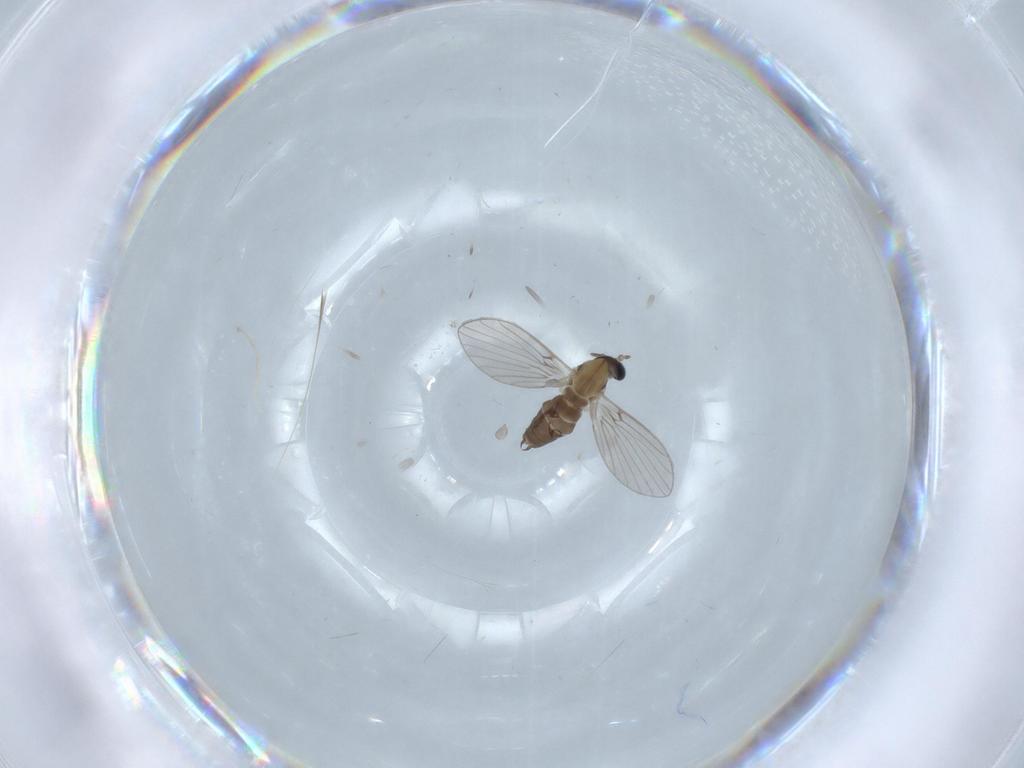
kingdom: Animalia
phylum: Arthropoda
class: Insecta
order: Diptera
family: Psychodidae
